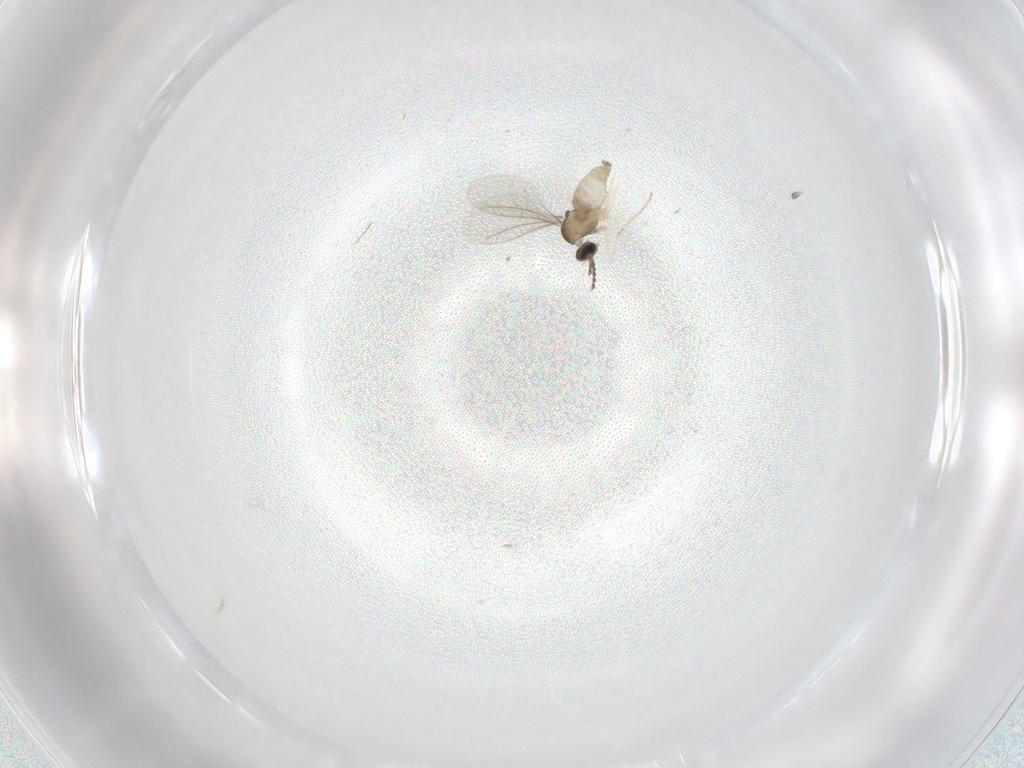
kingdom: Animalia
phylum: Arthropoda
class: Insecta
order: Diptera
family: Cecidomyiidae
